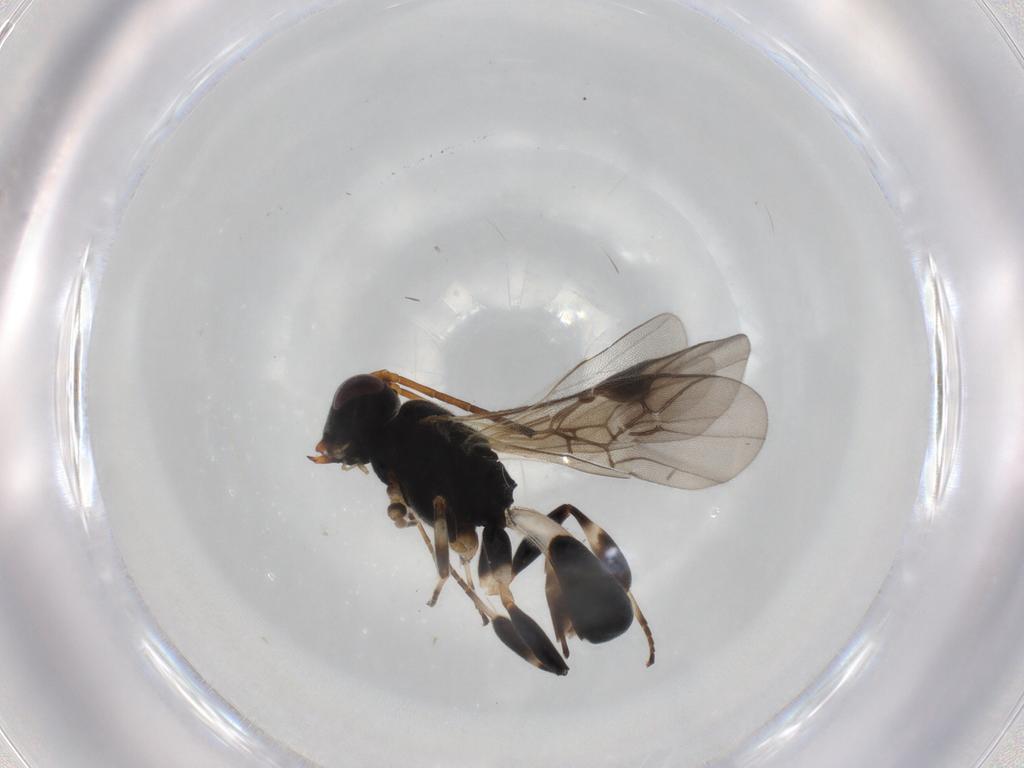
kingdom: Animalia
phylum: Arthropoda
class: Insecta
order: Hymenoptera
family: Braconidae
